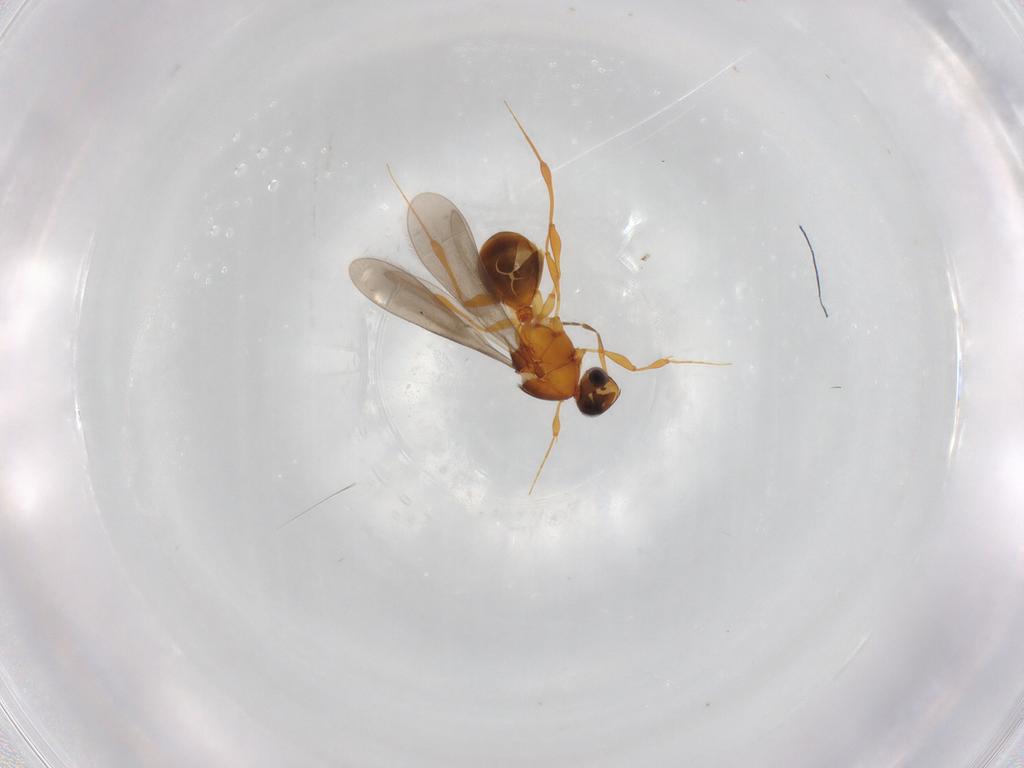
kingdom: Animalia
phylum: Arthropoda
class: Insecta
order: Hymenoptera
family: Platygastridae
